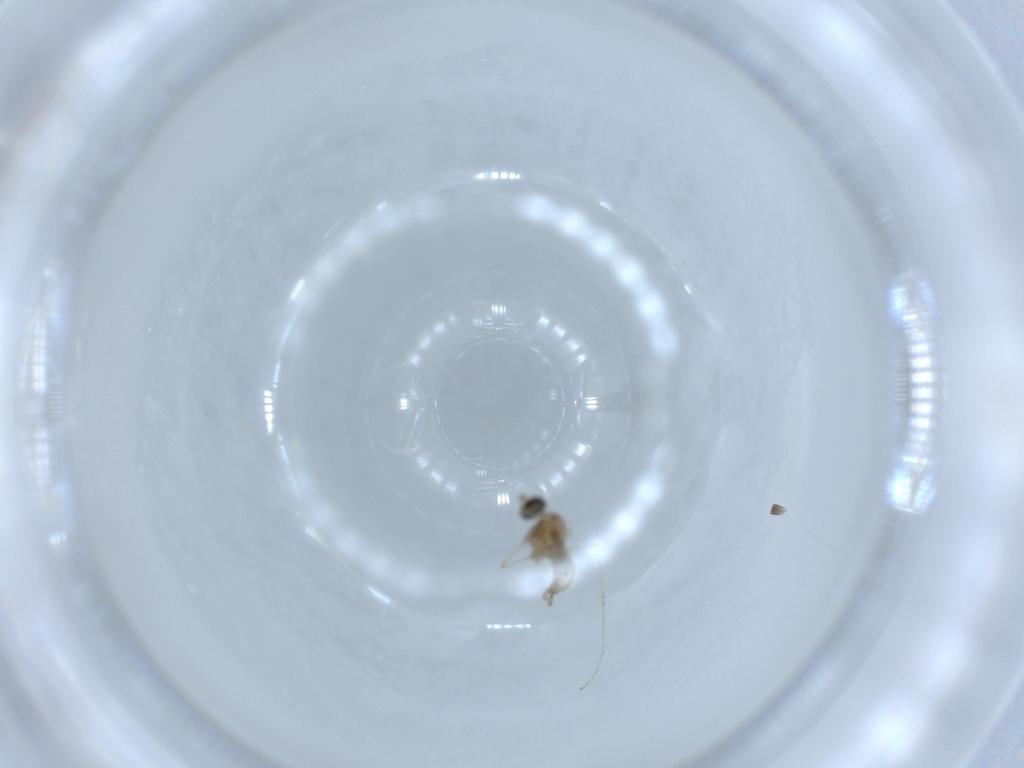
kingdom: Animalia
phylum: Arthropoda
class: Insecta
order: Diptera
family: Cecidomyiidae
